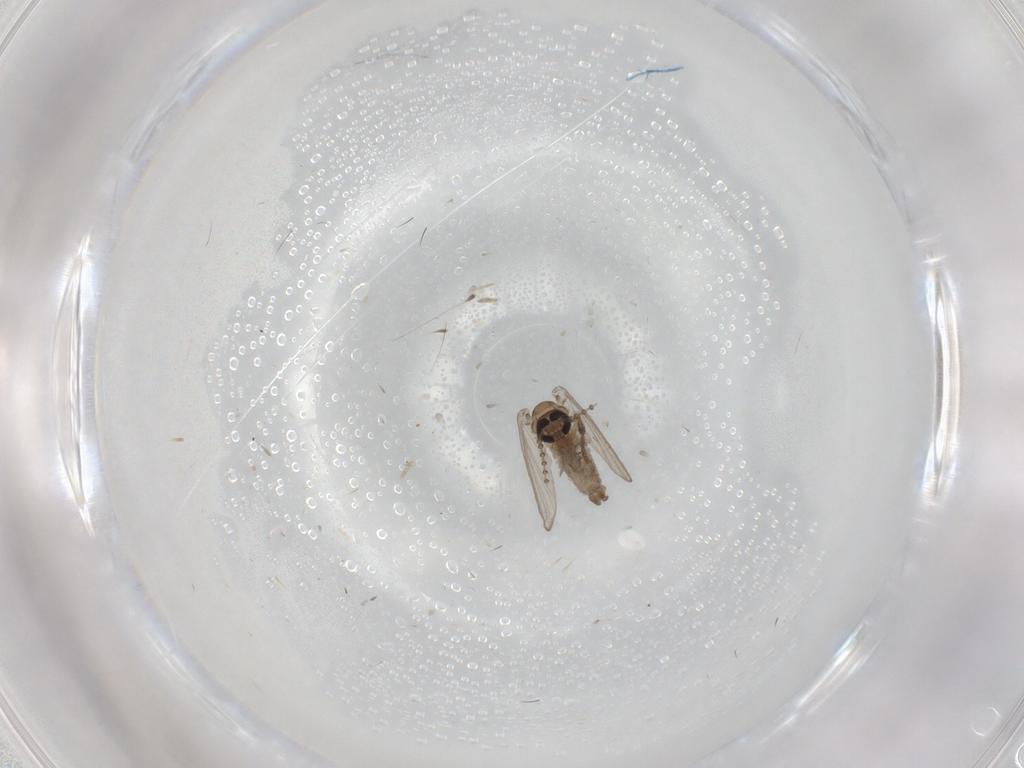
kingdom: Animalia
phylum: Arthropoda
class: Insecta
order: Diptera
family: Psychodidae
